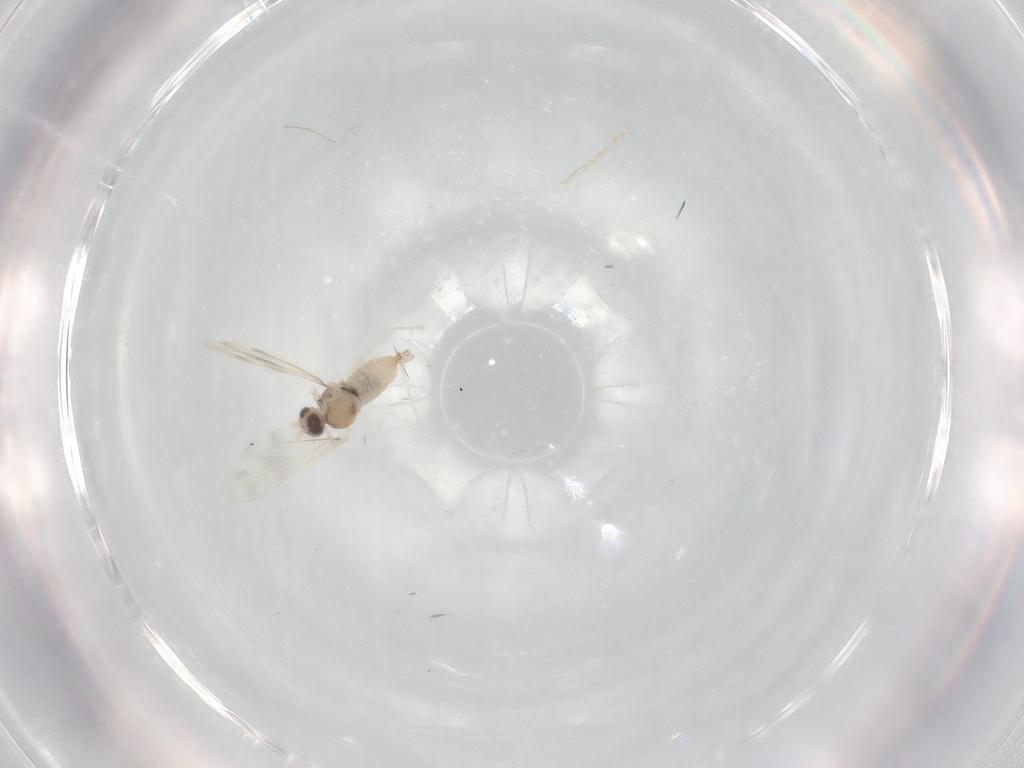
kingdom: Animalia
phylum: Arthropoda
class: Insecta
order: Diptera
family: Cecidomyiidae
